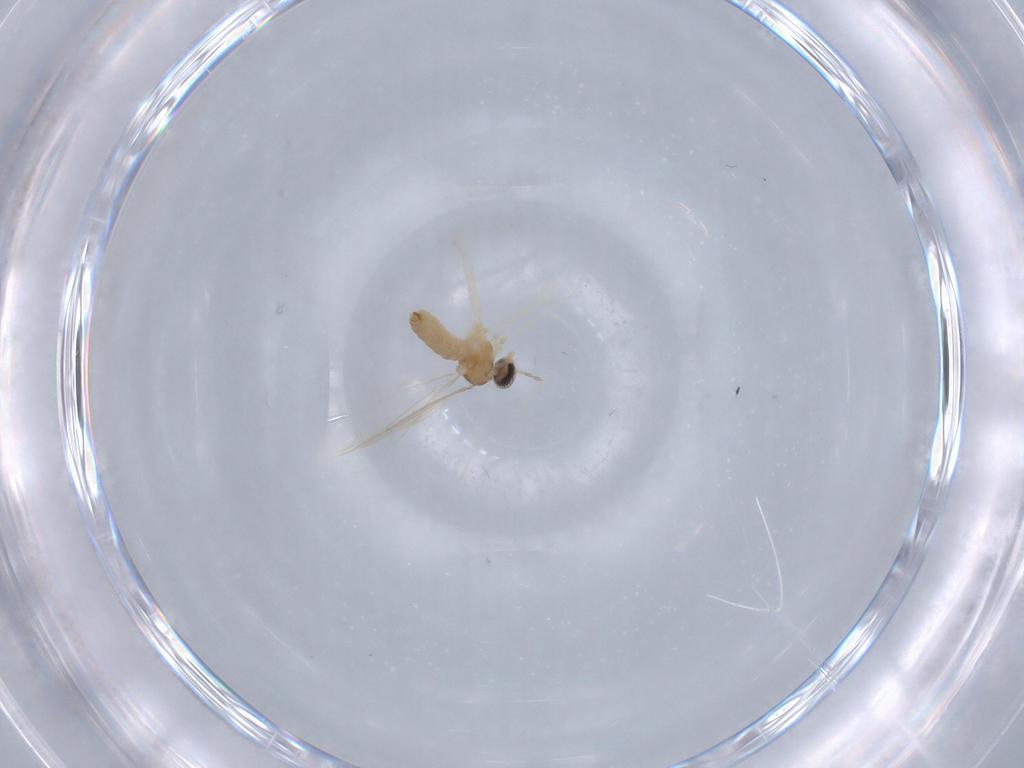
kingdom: Animalia
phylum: Arthropoda
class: Insecta
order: Diptera
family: Cecidomyiidae
